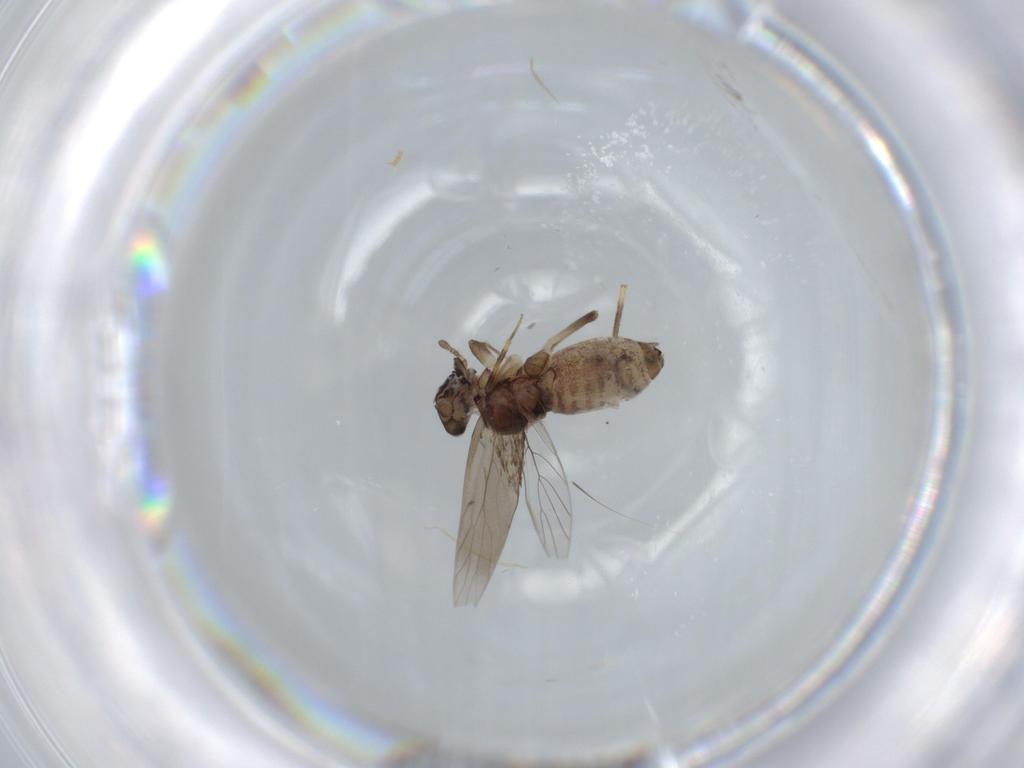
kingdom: Animalia
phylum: Arthropoda
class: Insecta
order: Psocodea
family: Lepidopsocidae
